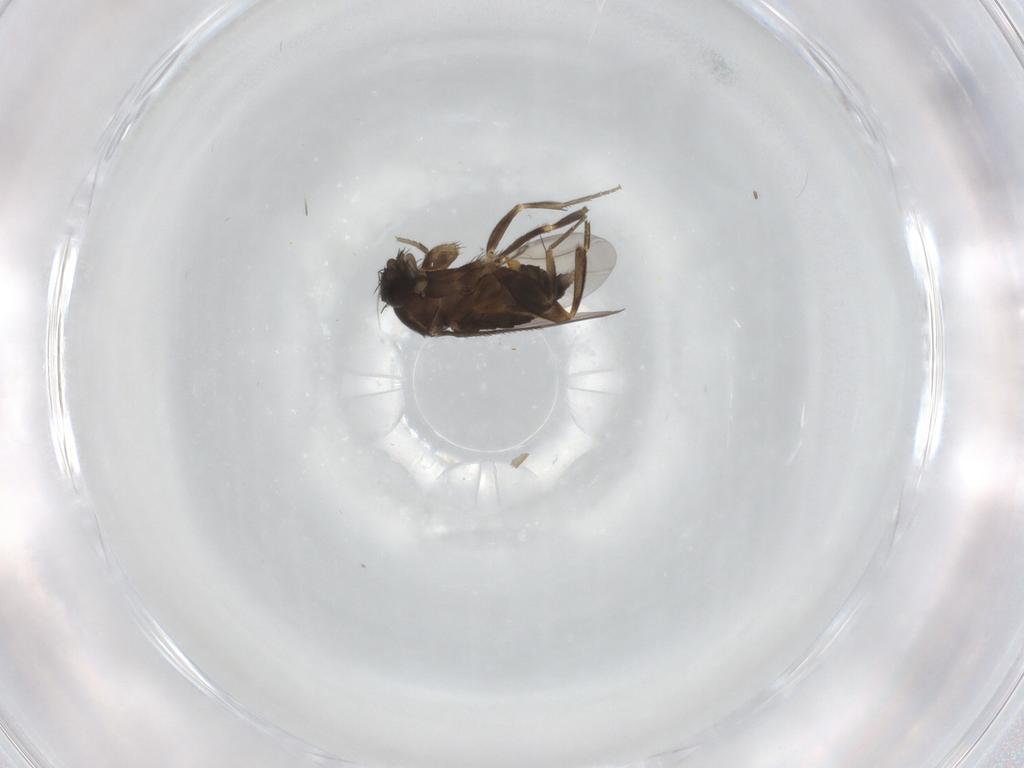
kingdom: Animalia
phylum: Arthropoda
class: Insecta
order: Diptera
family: Phoridae
